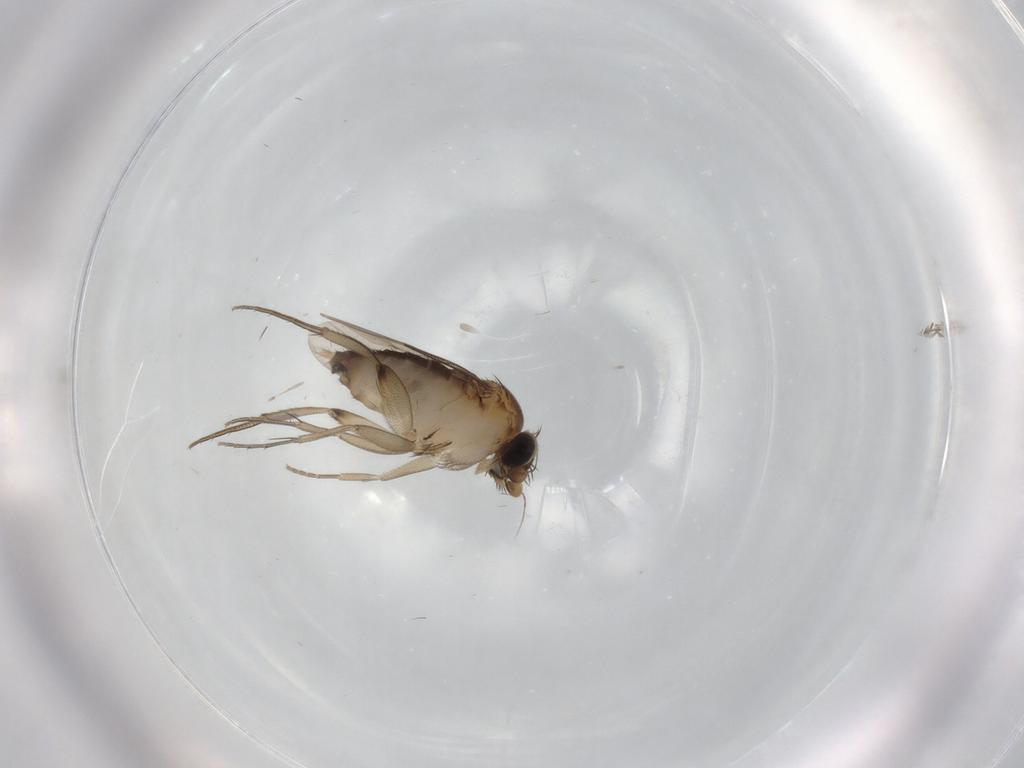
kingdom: Animalia
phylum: Arthropoda
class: Insecta
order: Diptera
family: Phoridae
